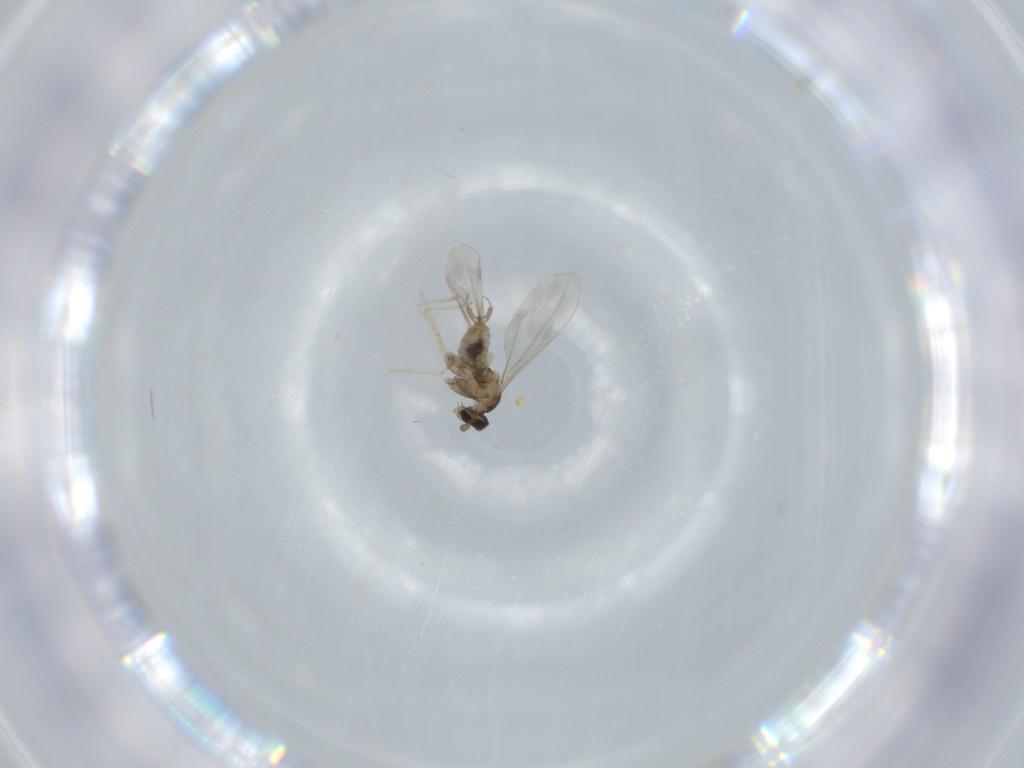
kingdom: Animalia
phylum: Arthropoda
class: Insecta
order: Diptera
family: Cecidomyiidae
